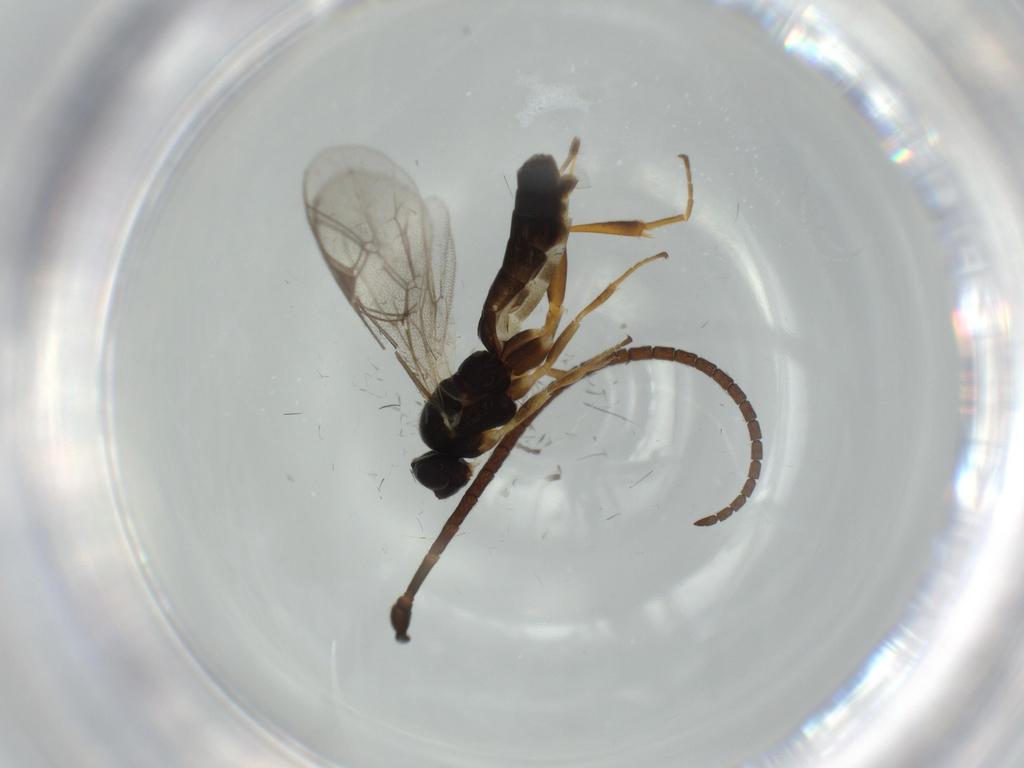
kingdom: Animalia
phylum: Arthropoda
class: Insecta
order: Hymenoptera
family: Ichneumonidae
